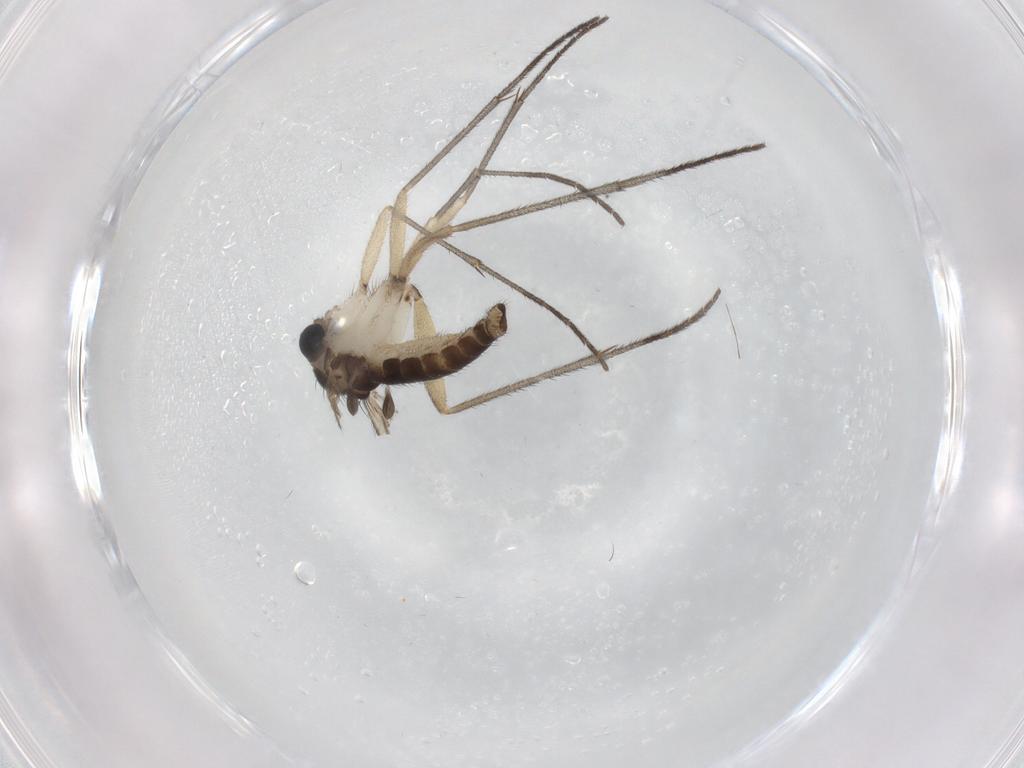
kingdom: Animalia
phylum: Arthropoda
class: Insecta
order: Diptera
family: Sciaridae
